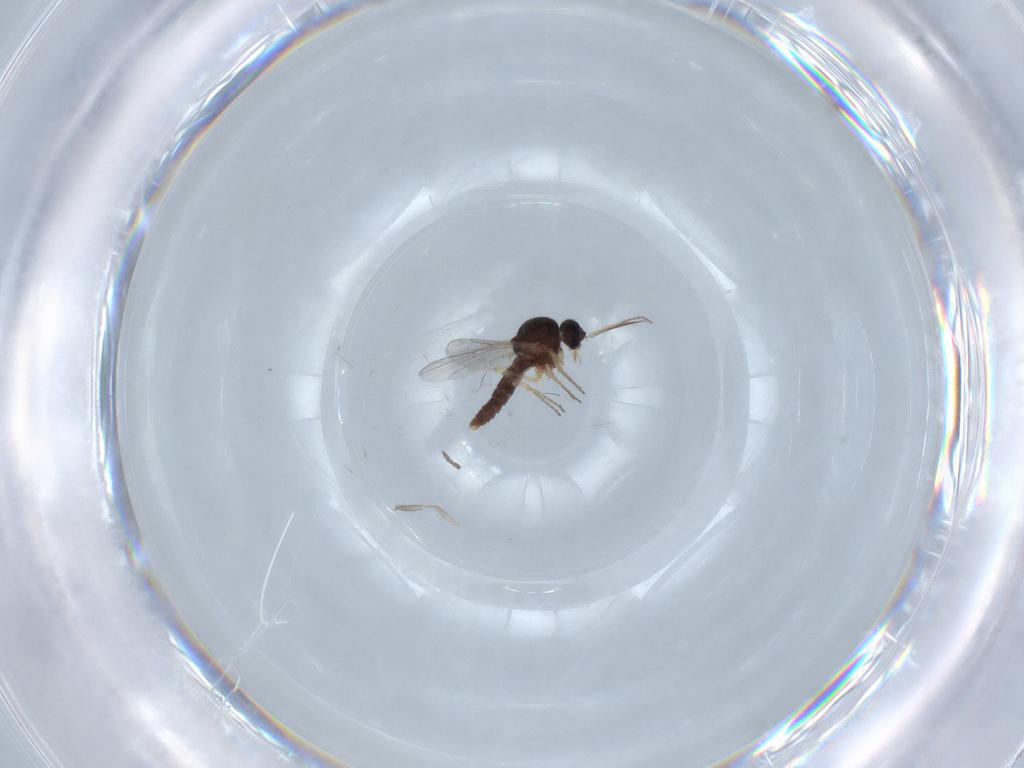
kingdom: Animalia
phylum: Arthropoda
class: Insecta
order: Diptera
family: Ceratopogonidae
